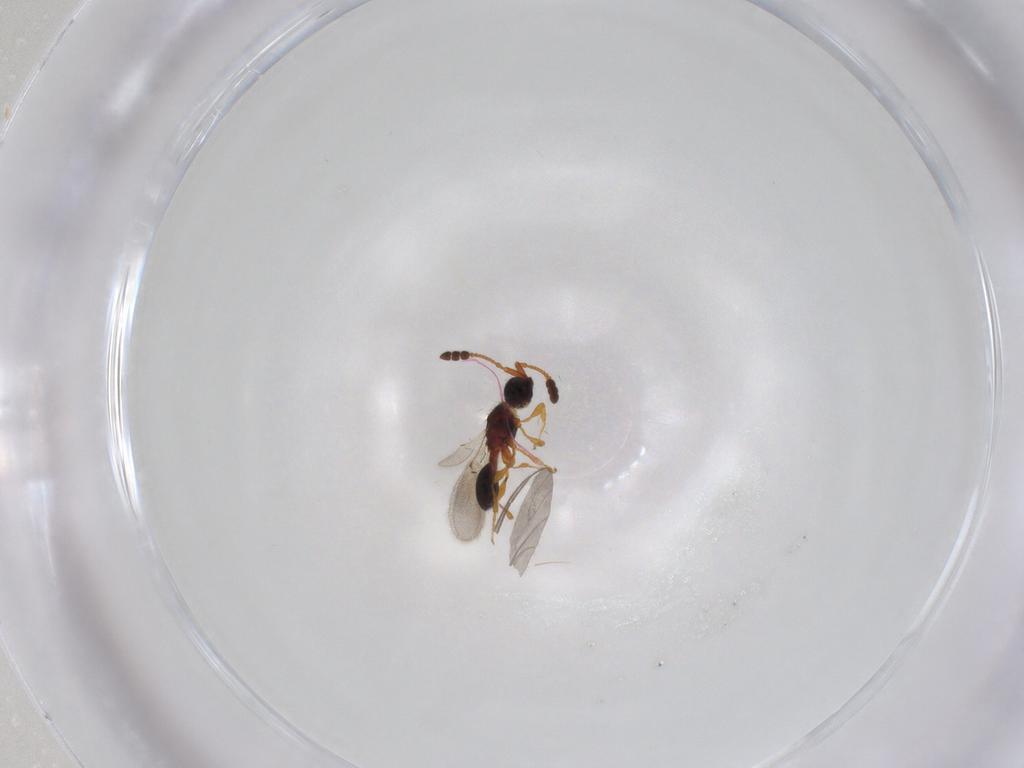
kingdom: Animalia
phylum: Arthropoda
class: Insecta
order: Hymenoptera
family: Diapriidae
